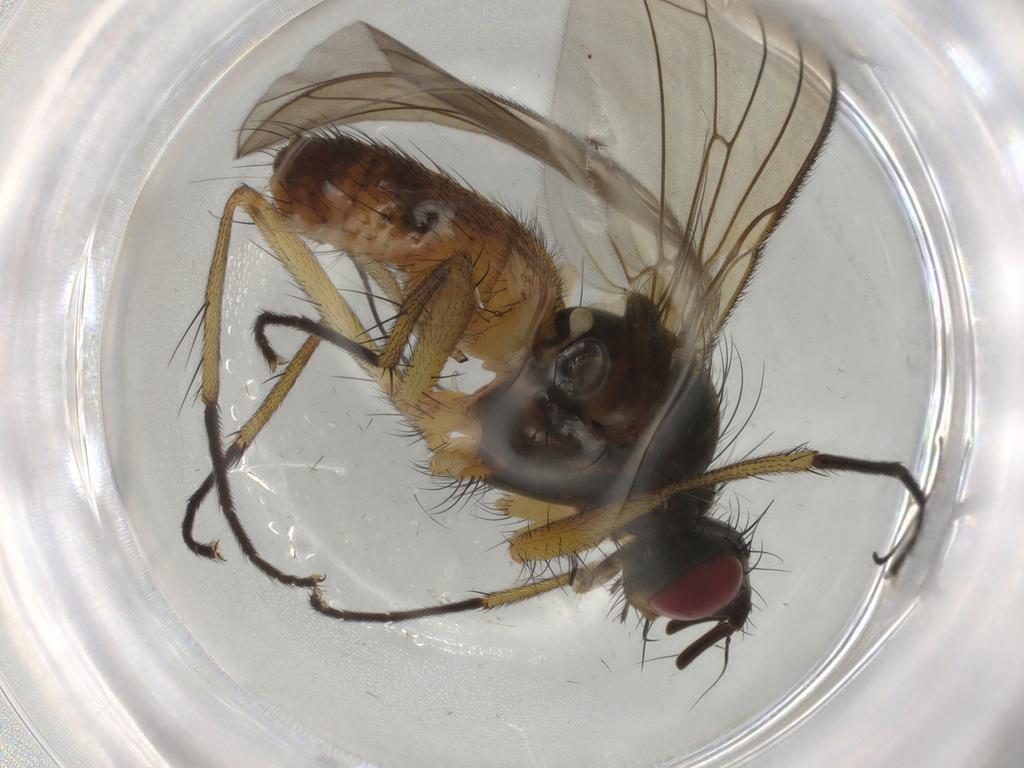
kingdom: Animalia
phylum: Arthropoda
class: Insecta
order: Diptera
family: Muscidae
